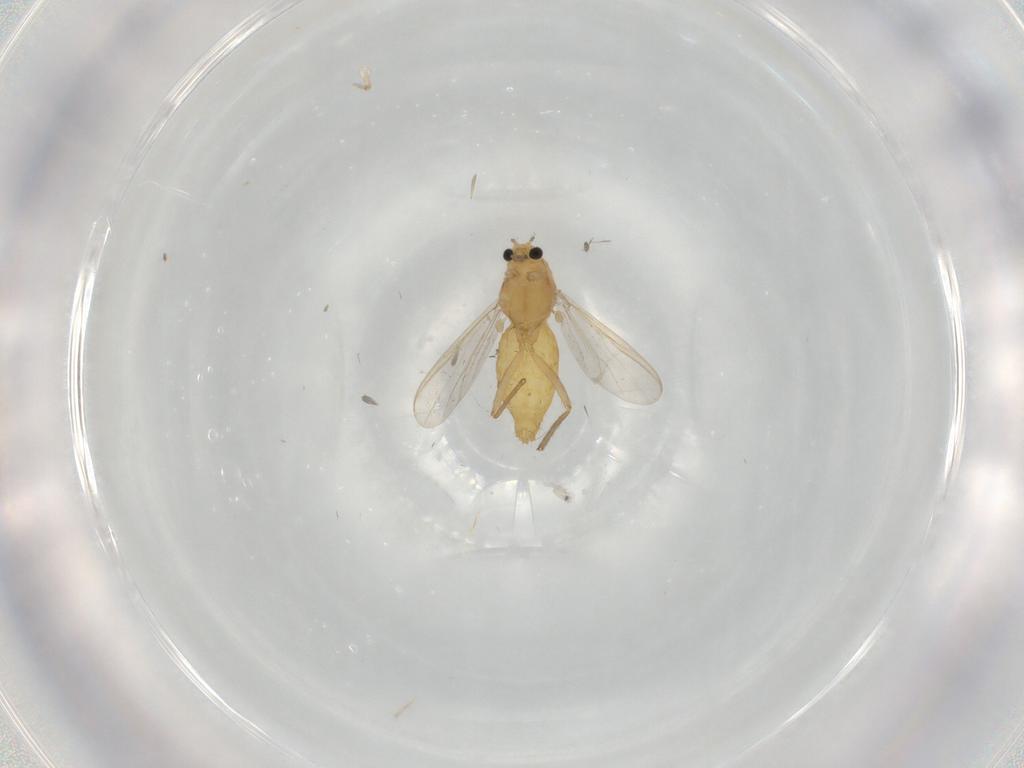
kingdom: Animalia
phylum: Arthropoda
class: Insecta
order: Diptera
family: Chironomidae
